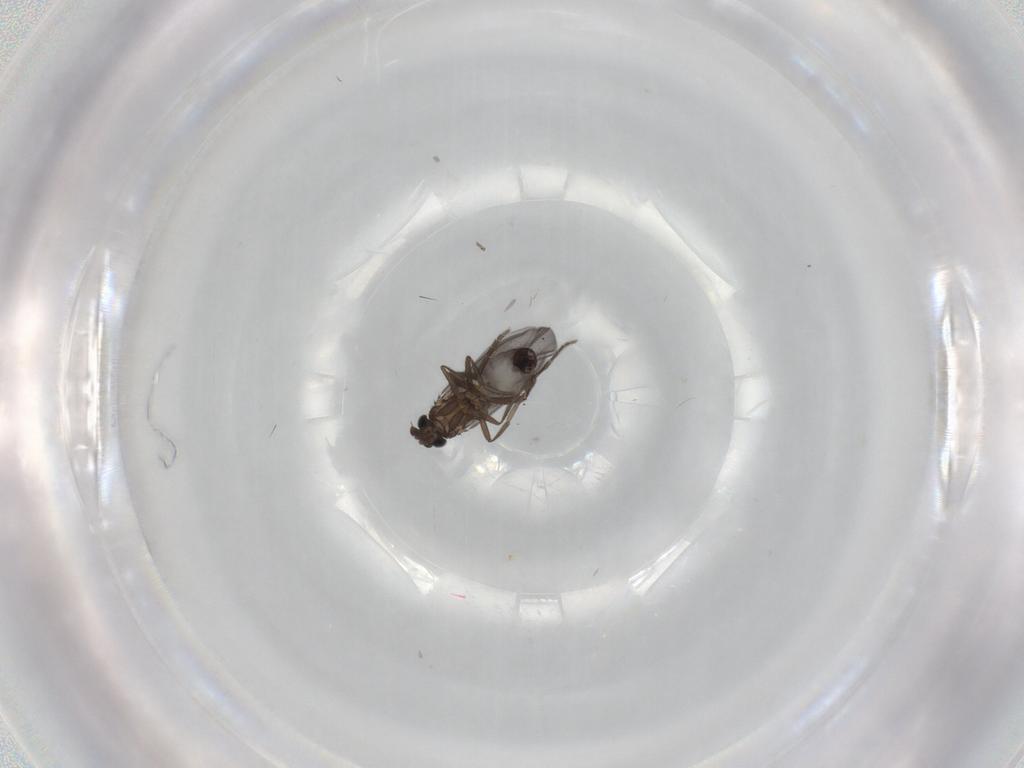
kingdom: Animalia
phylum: Arthropoda
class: Insecta
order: Diptera
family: Phoridae
